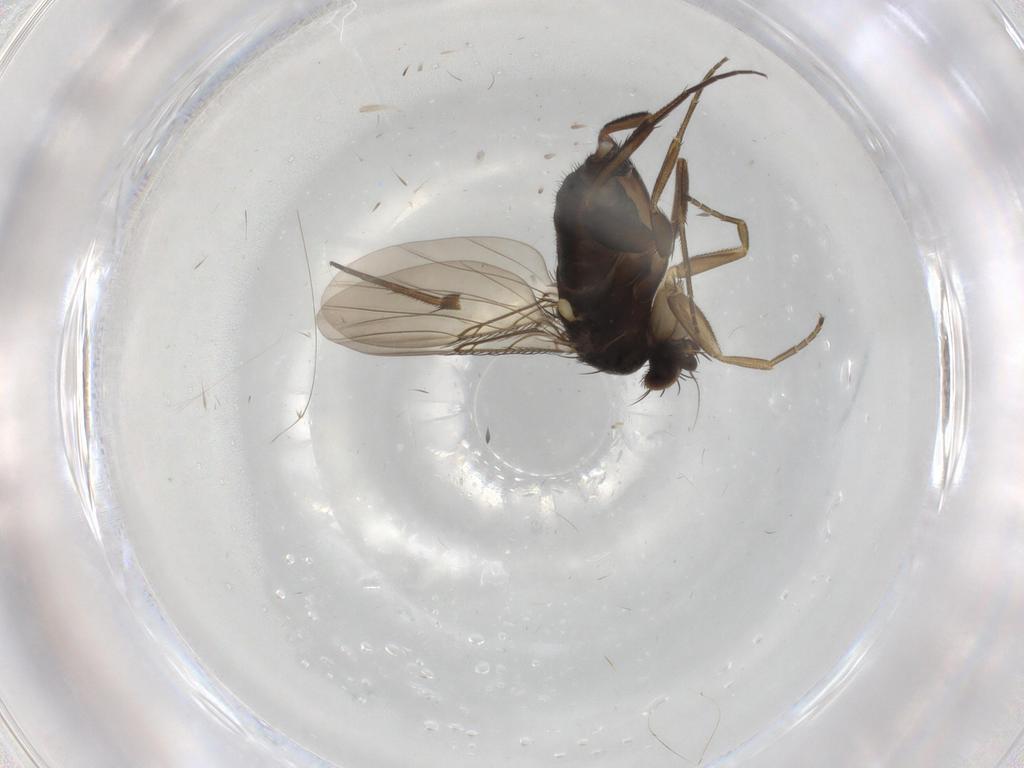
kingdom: Animalia
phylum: Arthropoda
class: Insecta
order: Diptera
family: Phoridae
